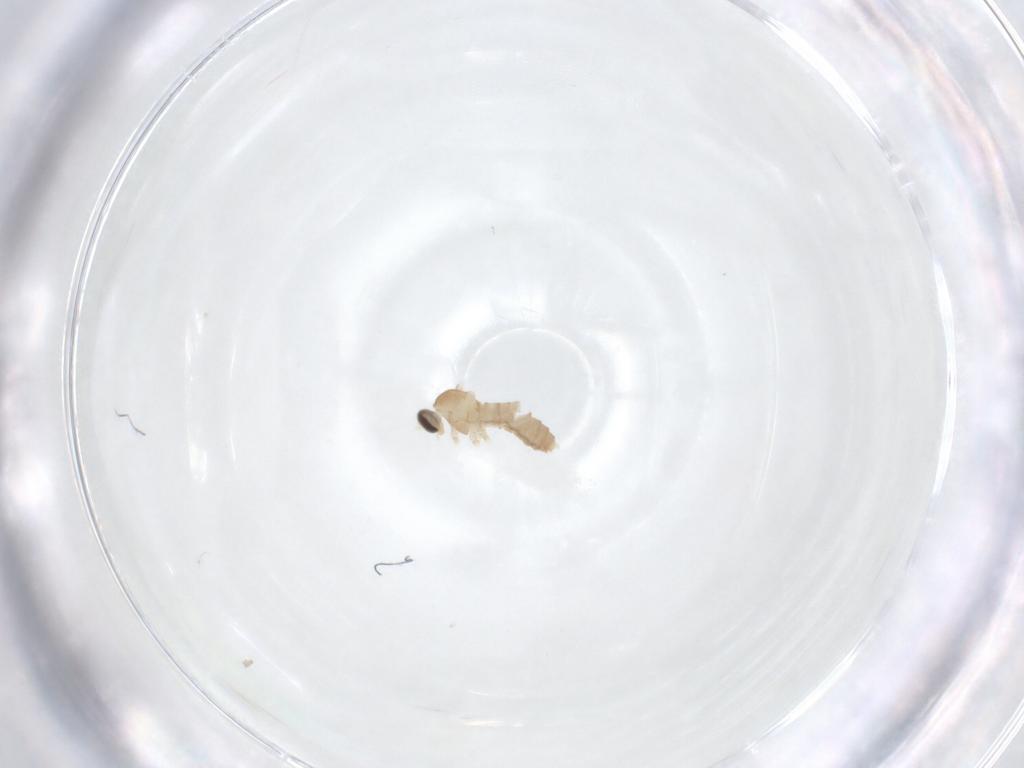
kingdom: Animalia
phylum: Arthropoda
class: Insecta
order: Diptera
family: Cecidomyiidae
